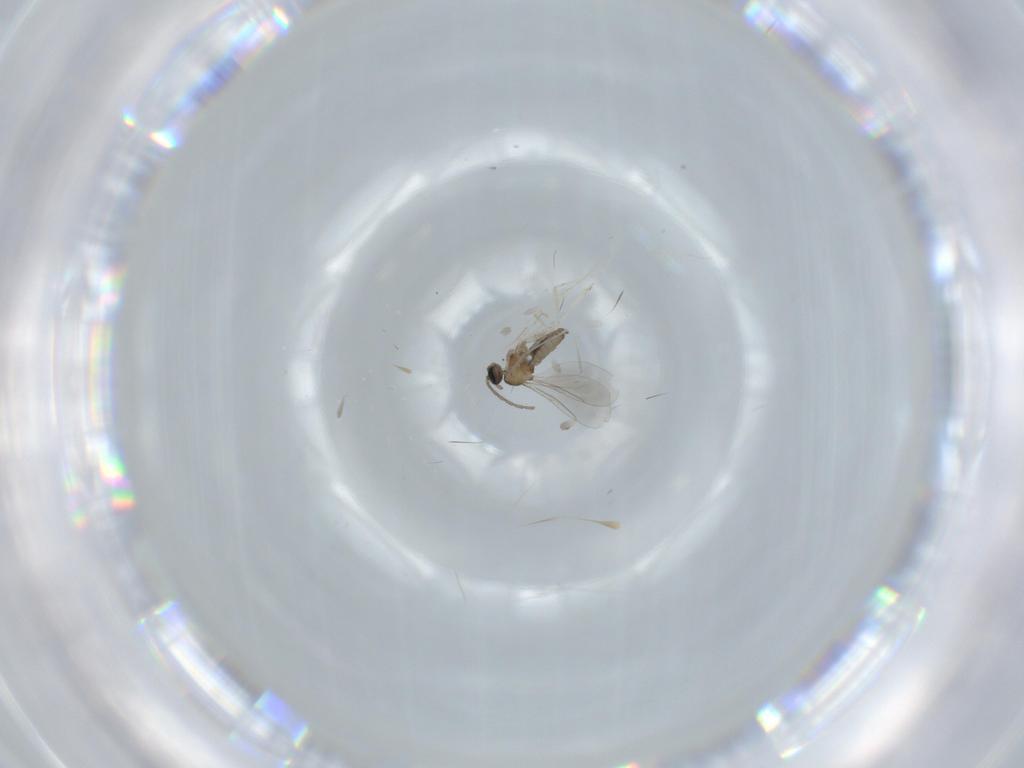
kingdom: Animalia
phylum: Arthropoda
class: Insecta
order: Diptera
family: Cecidomyiidae
